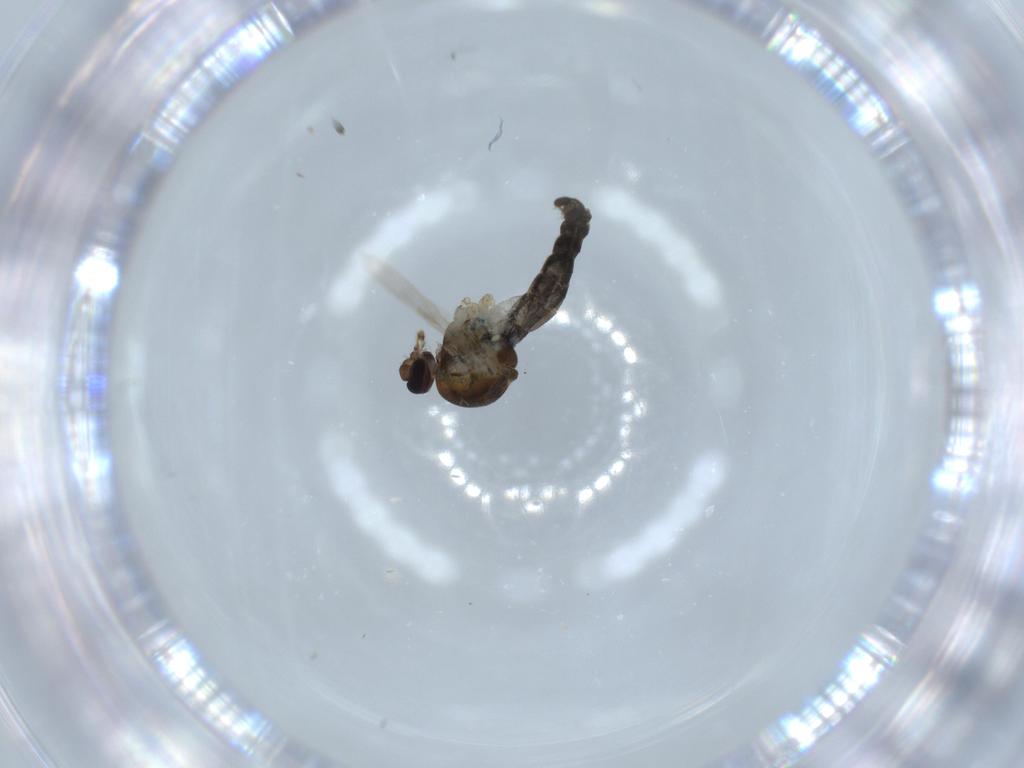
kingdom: Animalia
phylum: Arthropoda
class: Insecta
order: Diptera
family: Ceratopogonidae
